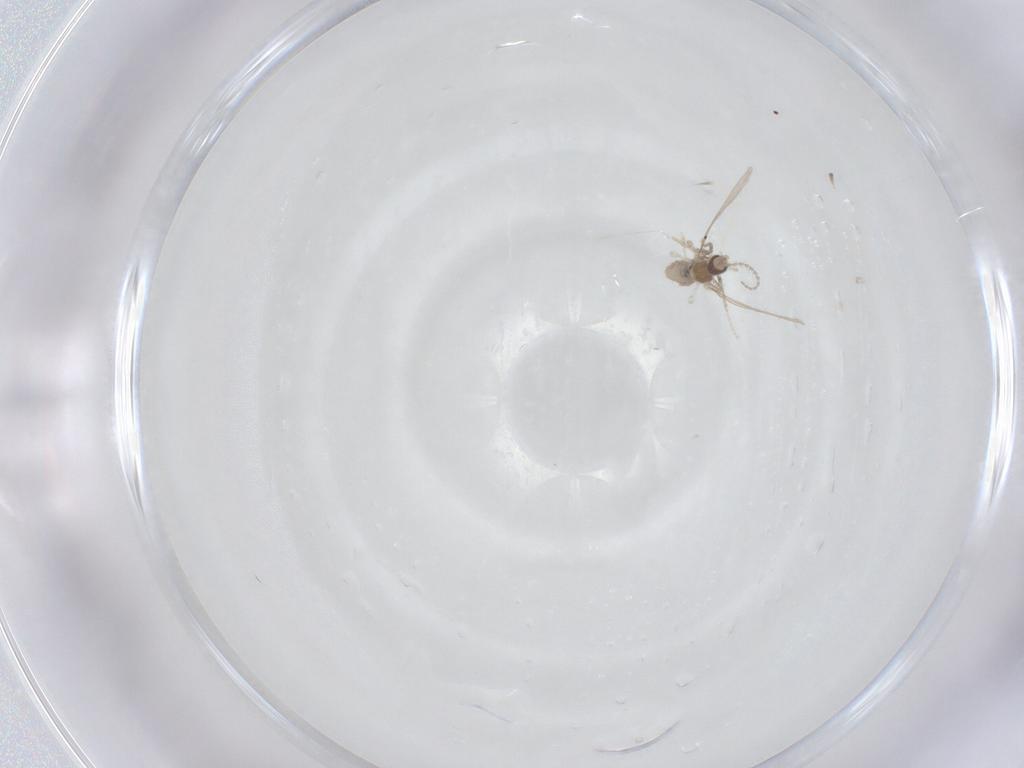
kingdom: Animalia
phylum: Arthropoda
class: Insecta
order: Diptera
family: Cecidomyiidae
